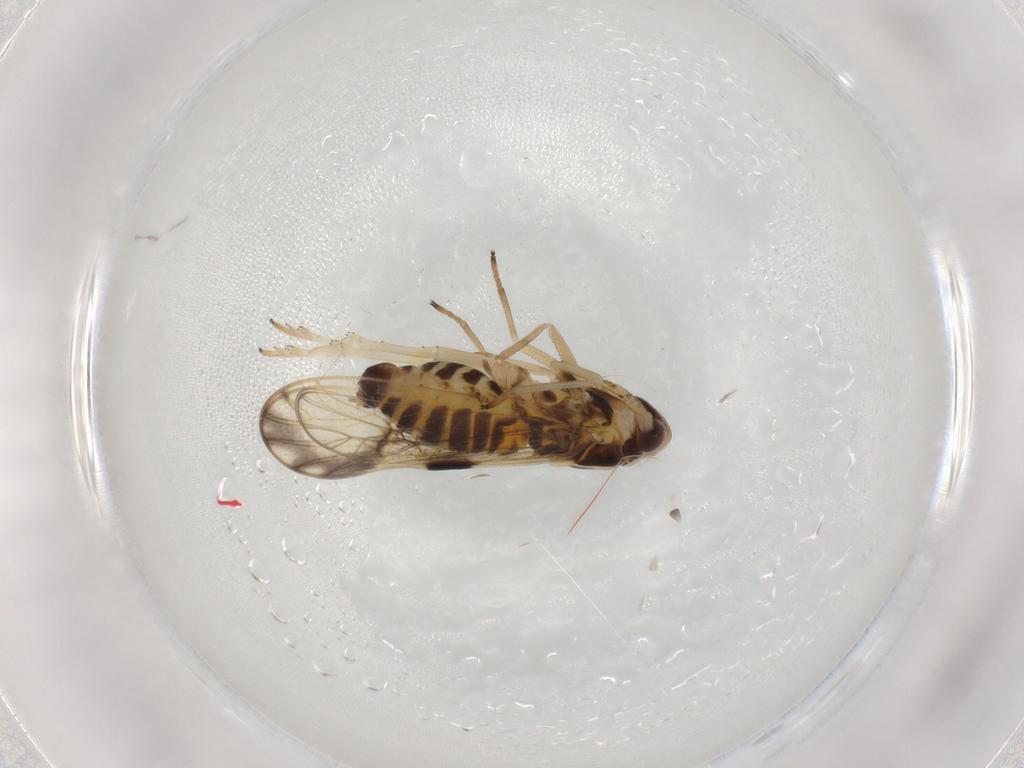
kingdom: Animalia
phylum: Arthropoda
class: Insecta
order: Hemiptera
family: Delphacidae
